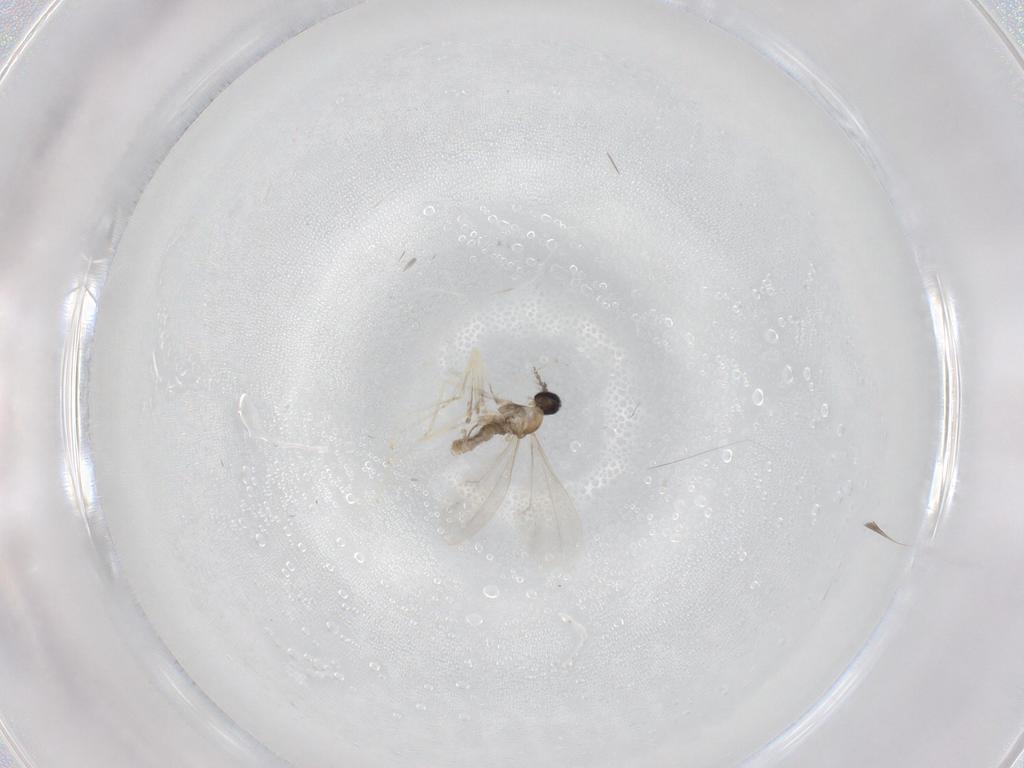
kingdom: Animalia
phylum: Arthropoda
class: Insecta
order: Diptera
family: Cecidomyiidae
